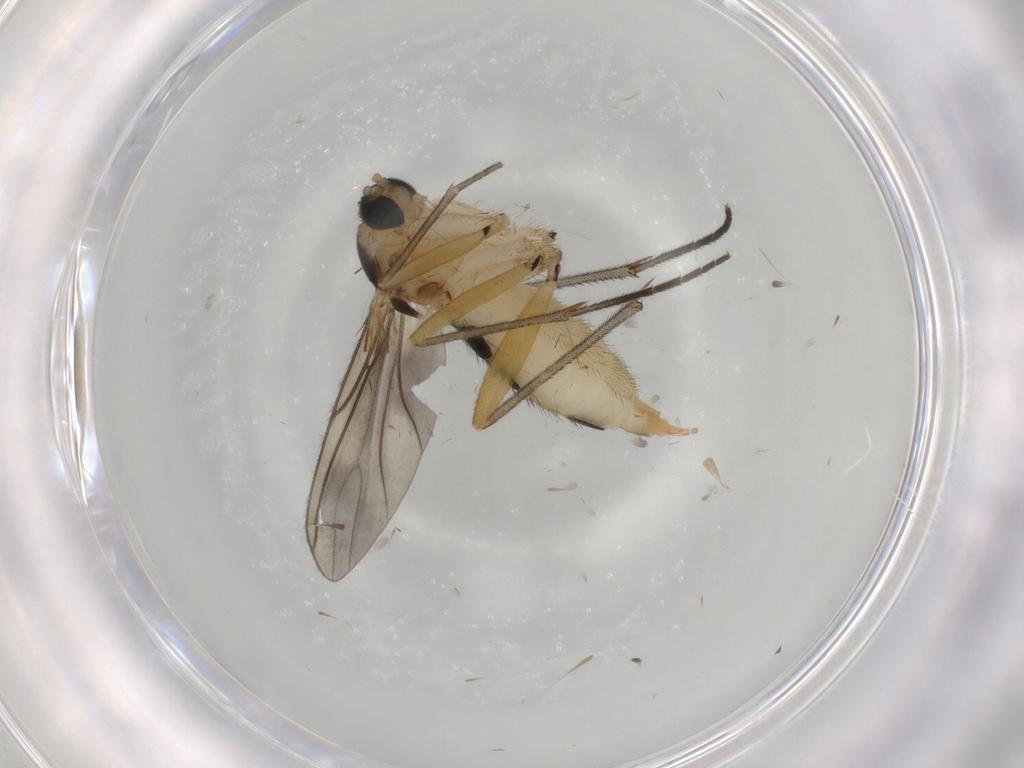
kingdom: Animalia
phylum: Arthropoda
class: Insecta
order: Diptera
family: Sciaridae
